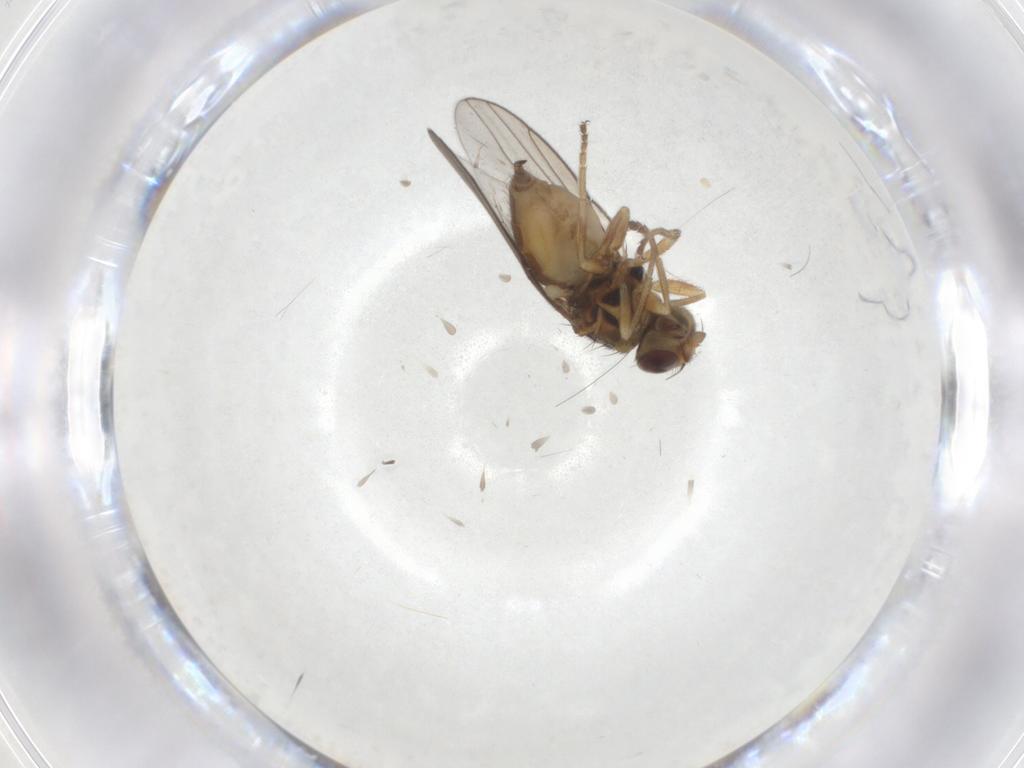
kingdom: Animalia
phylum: Arthropoda
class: Insecta
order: Diptera
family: Chloropidae
